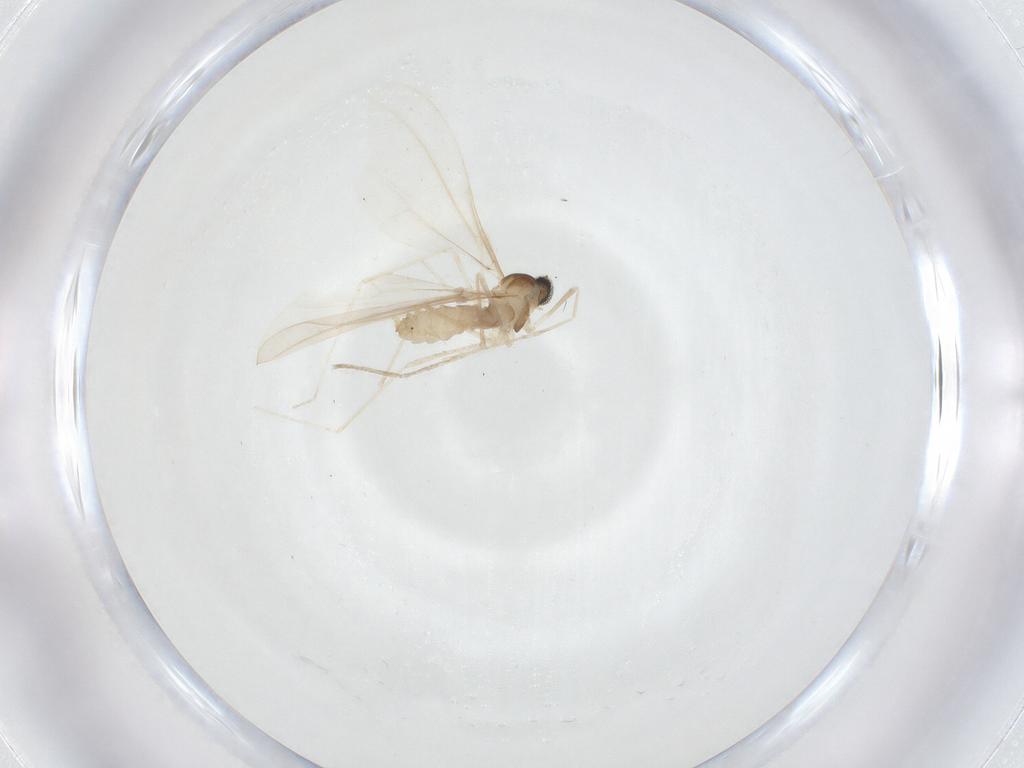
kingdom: Animalia
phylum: Arthropoda
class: Insecta
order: Diptera
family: Cecidomyiidae
